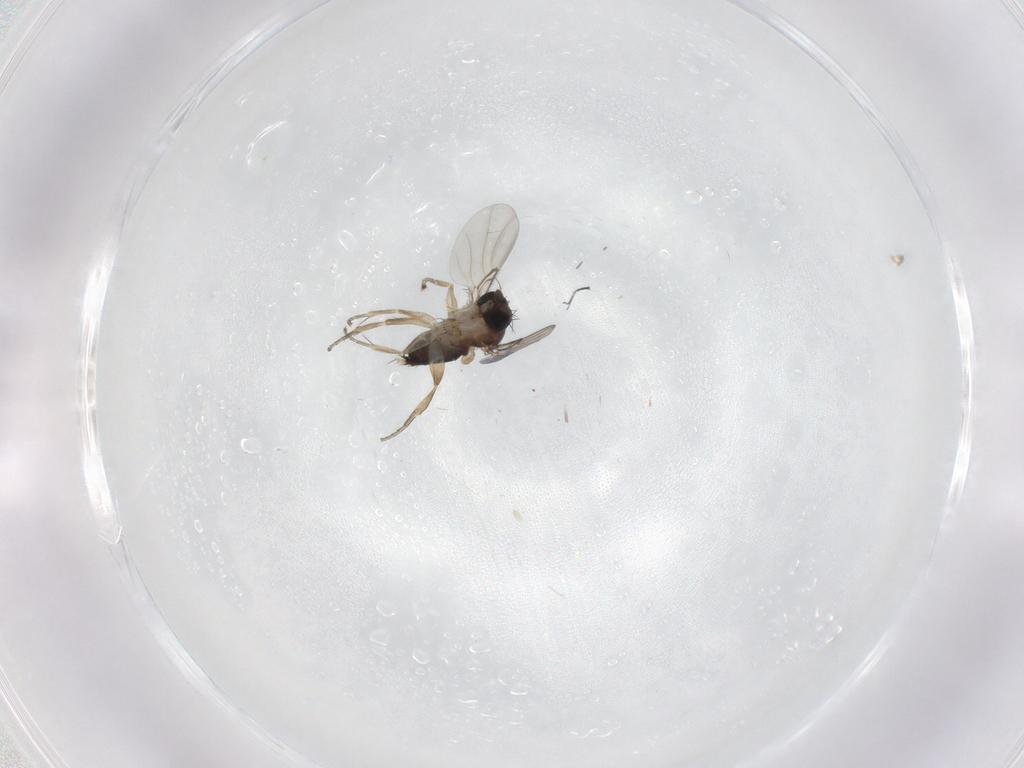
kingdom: Animalia
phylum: Arthropoda
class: Insecta
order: Diptera
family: Phoridae
